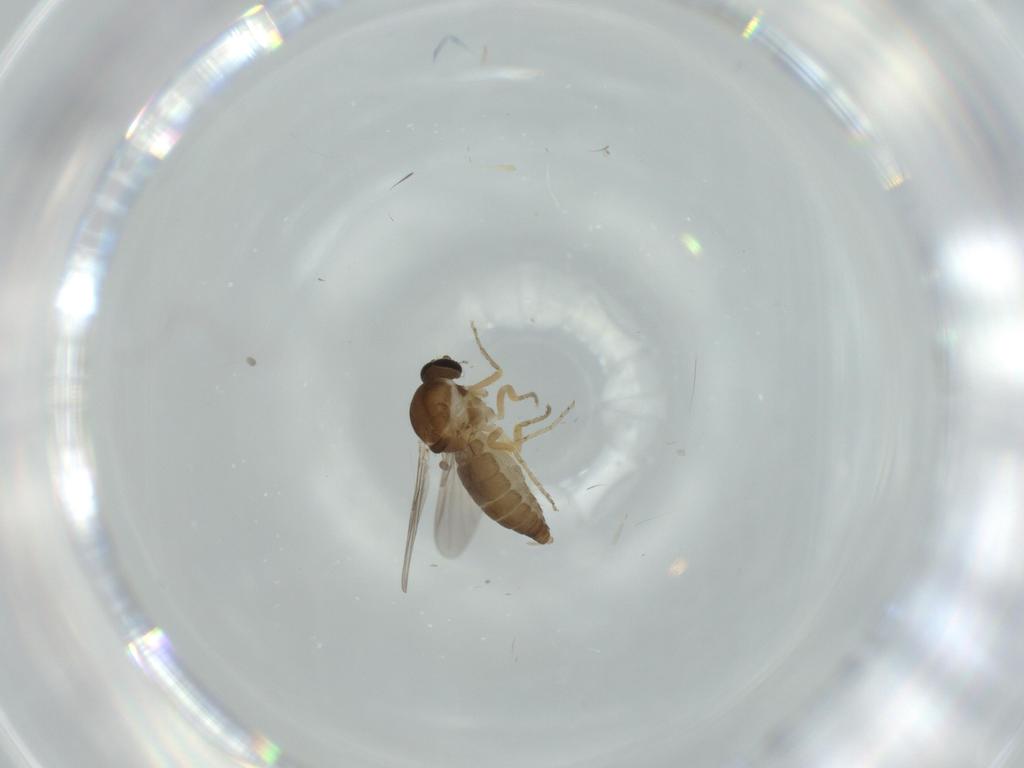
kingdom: Animalia
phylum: Arthropoda
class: Insecta
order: Diptera
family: Ceratopogonidae
